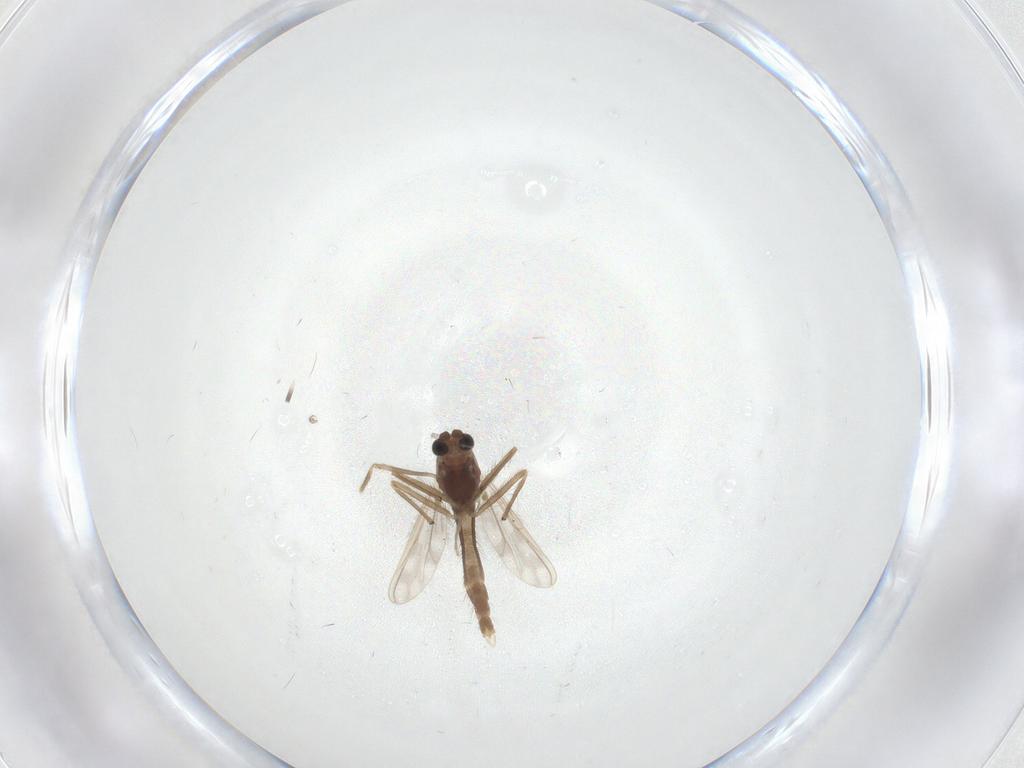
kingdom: Animalia
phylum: Arthropoda
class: Insecta
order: Diptera
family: Chironomidae
